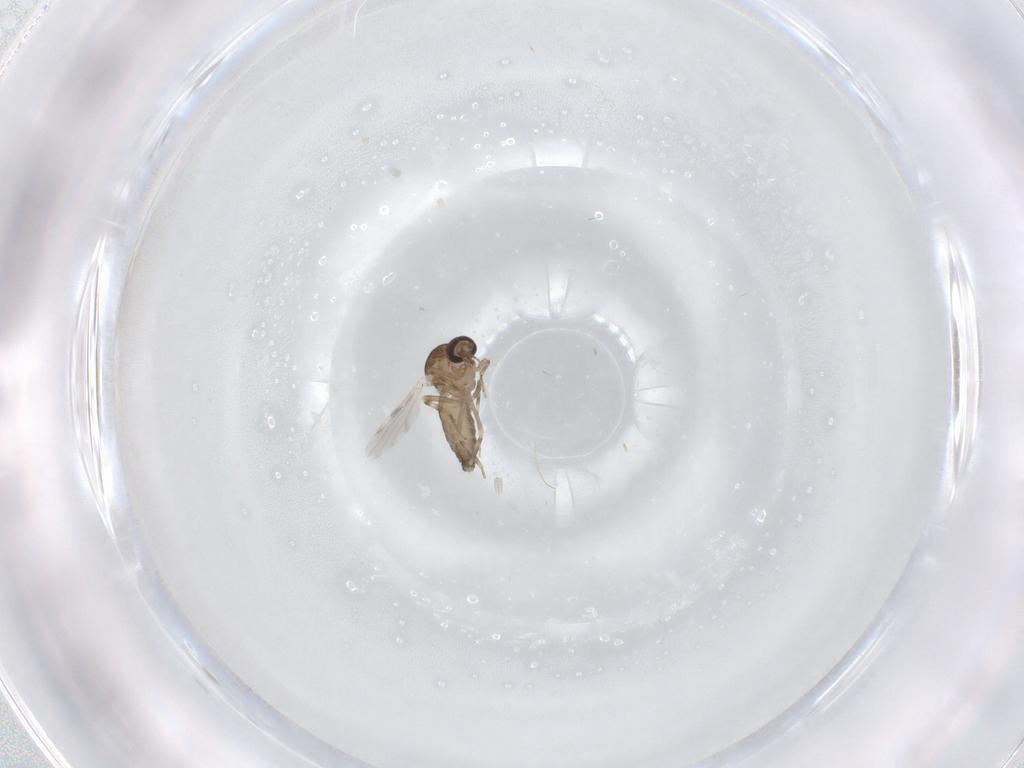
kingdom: Animalia
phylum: Arthropoda
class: Insecta
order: Diptera
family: Ceratopogonidae
